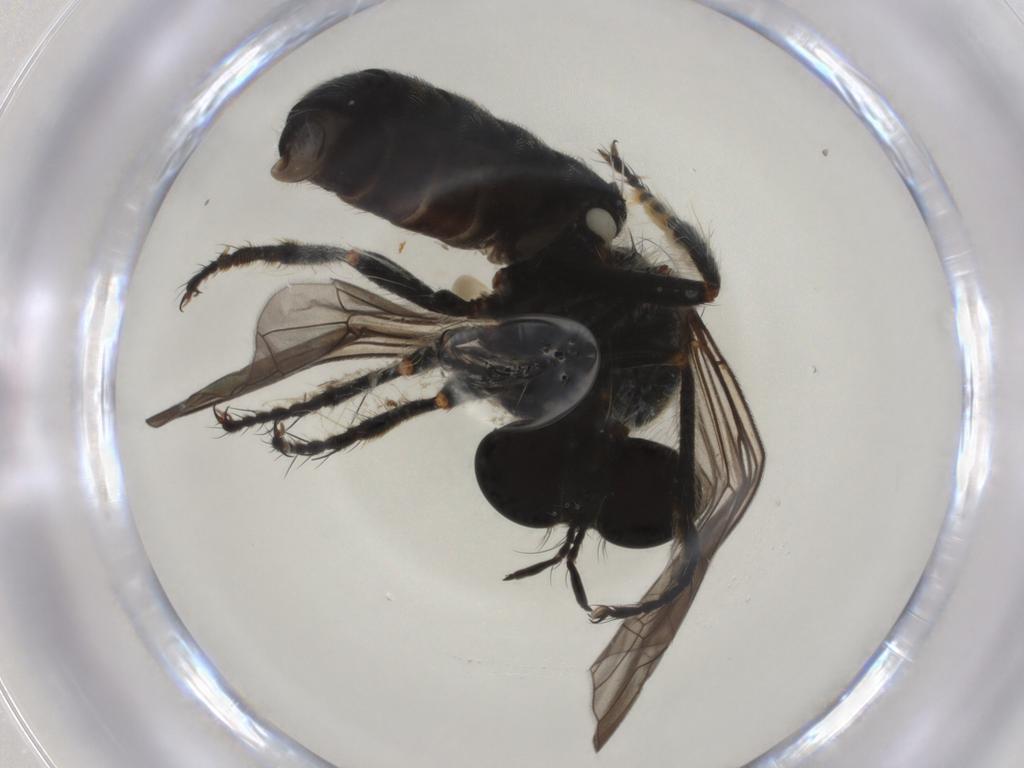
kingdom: Animalia
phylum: Arthropoda
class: Insecta
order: Diptera
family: Asilidae
